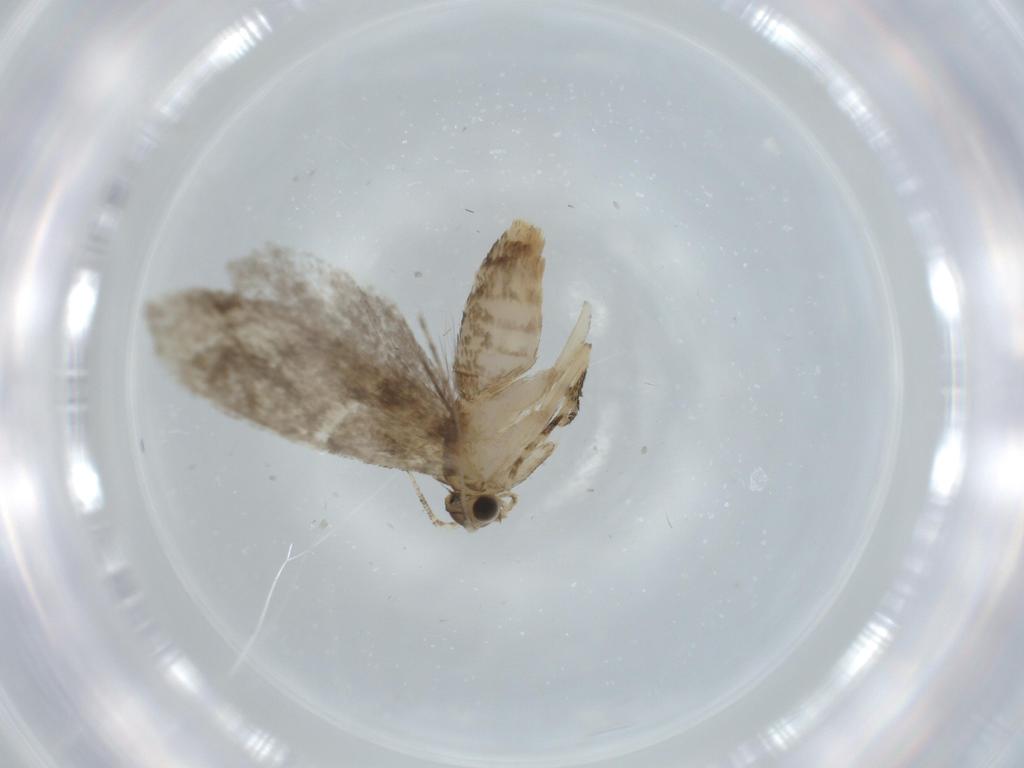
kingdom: Animalia
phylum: Arthropoda
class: Insecta
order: Lepidoptera
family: Tineidae
